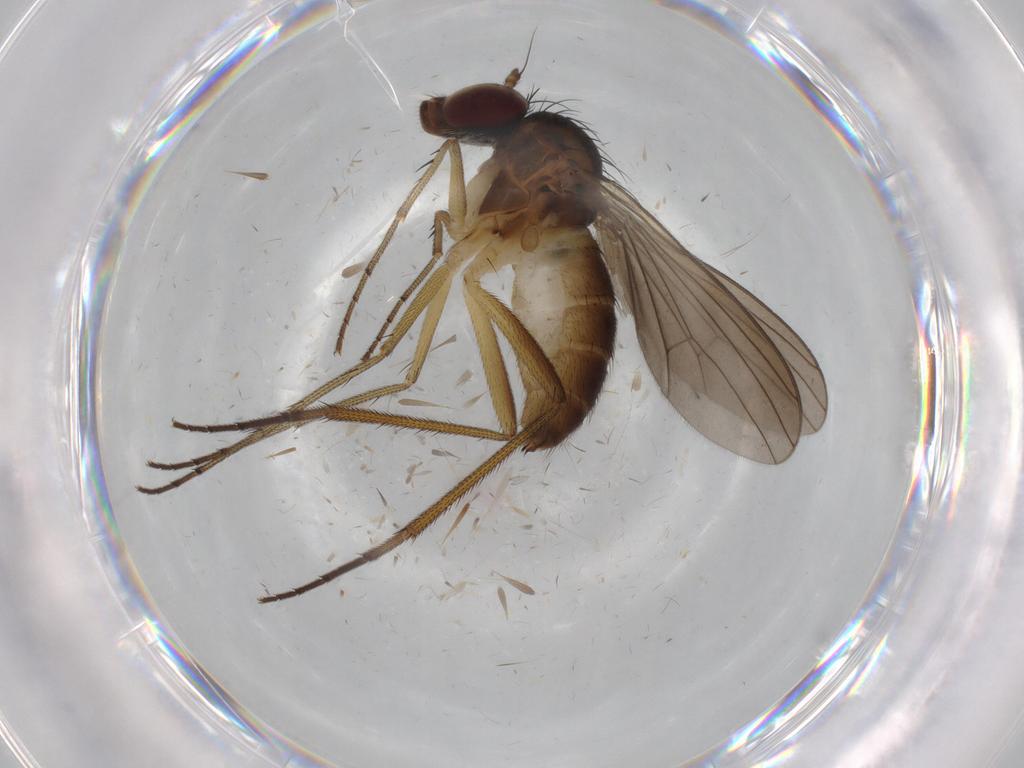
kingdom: Animalia
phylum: Arthropoda
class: Insecta
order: Diptera
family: Dolichopodidae
